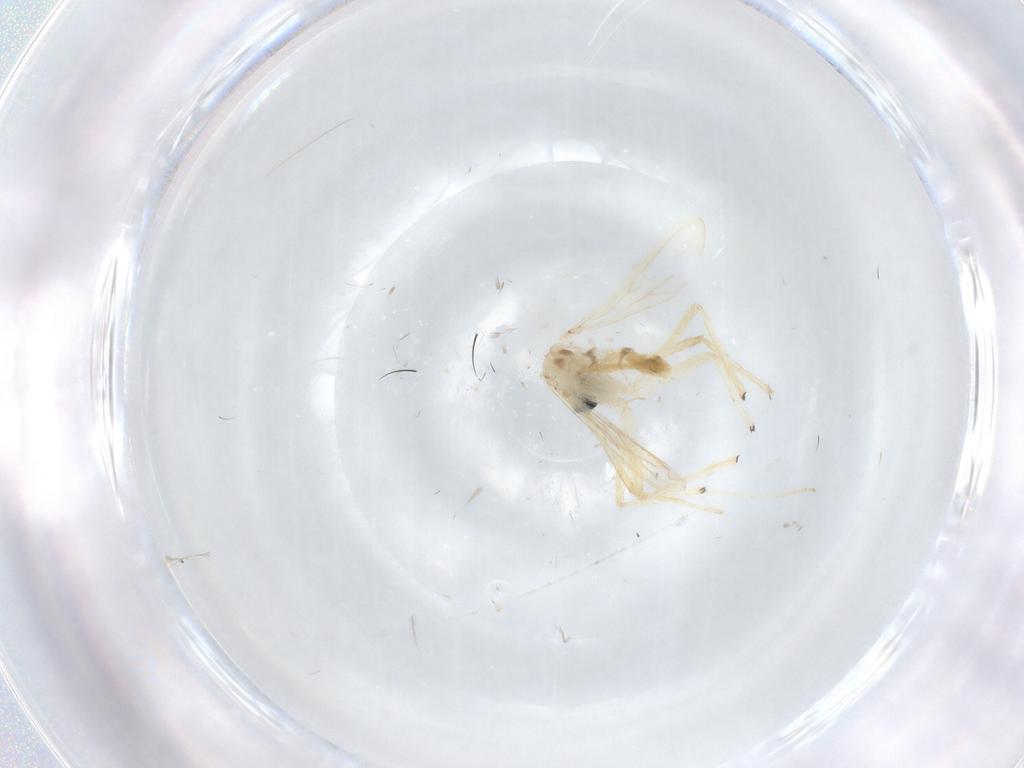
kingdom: Animalia
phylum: Arthropoda
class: Insecta
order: Diptera
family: Chironomidae
